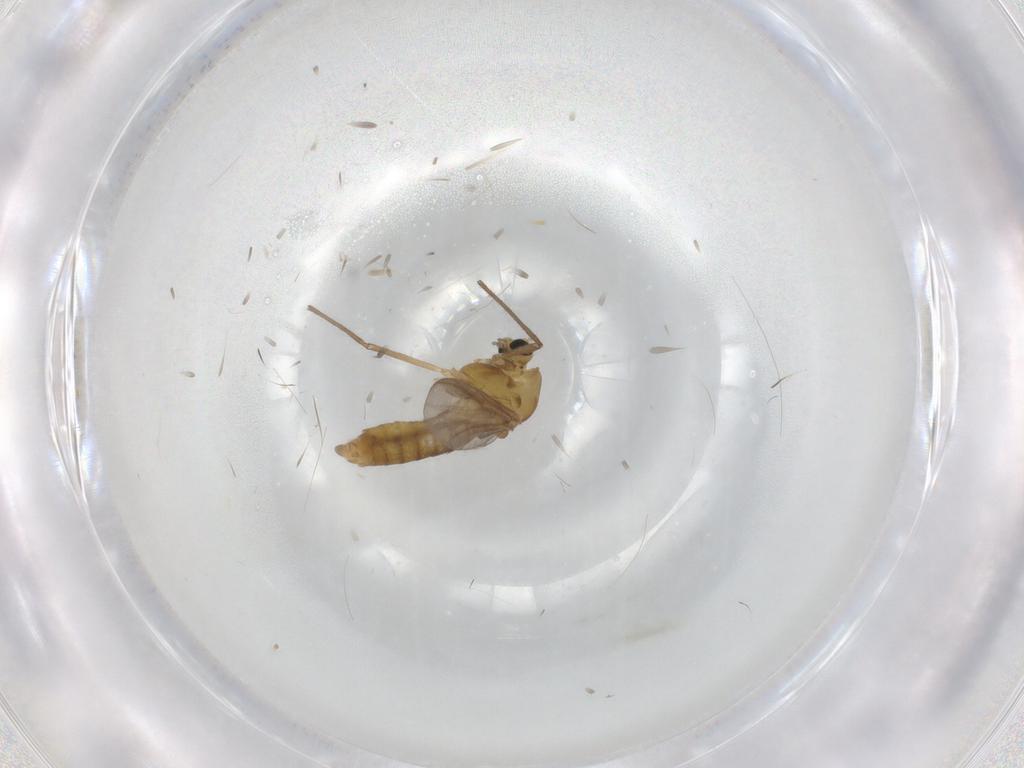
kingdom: Animalia
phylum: Arthropoda
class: Insecta
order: Diptera
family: Chironomidae
